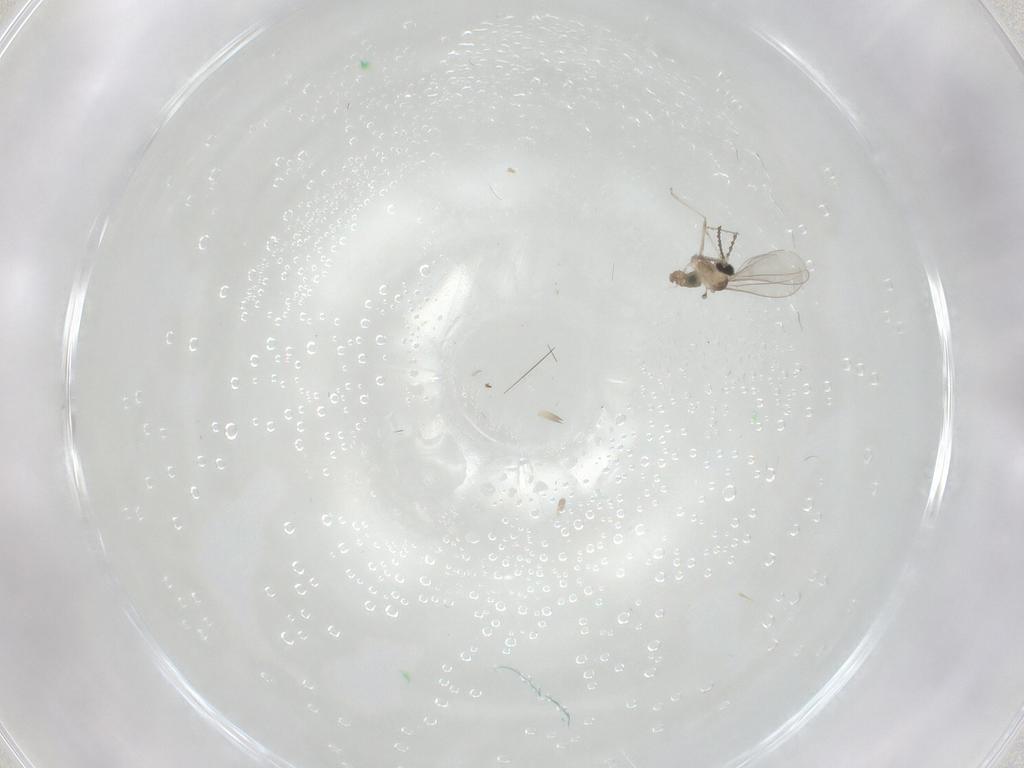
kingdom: Animalia
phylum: Arthropoda
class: Insecta
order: Diptera
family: Cecidomyiidae
